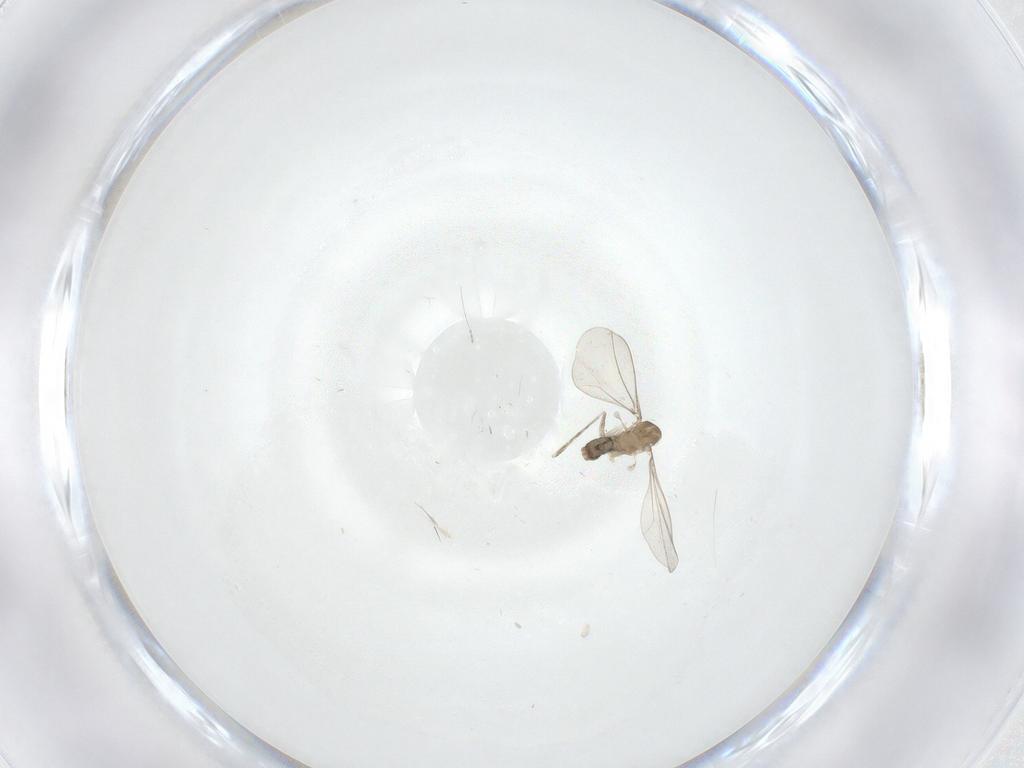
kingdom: Animalia
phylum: Arthropoda
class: Insecta
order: Diptera
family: Cecidomyiidae
